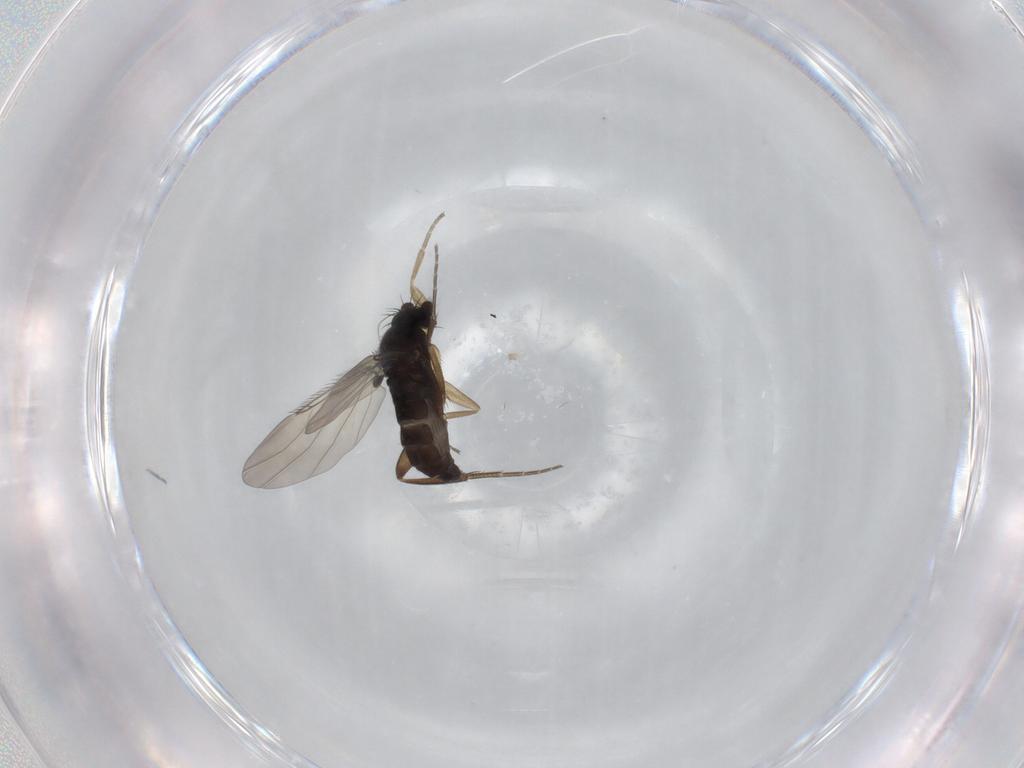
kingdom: Animalia
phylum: Arthropoda
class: Insecta
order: Diptera
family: Phoridae
